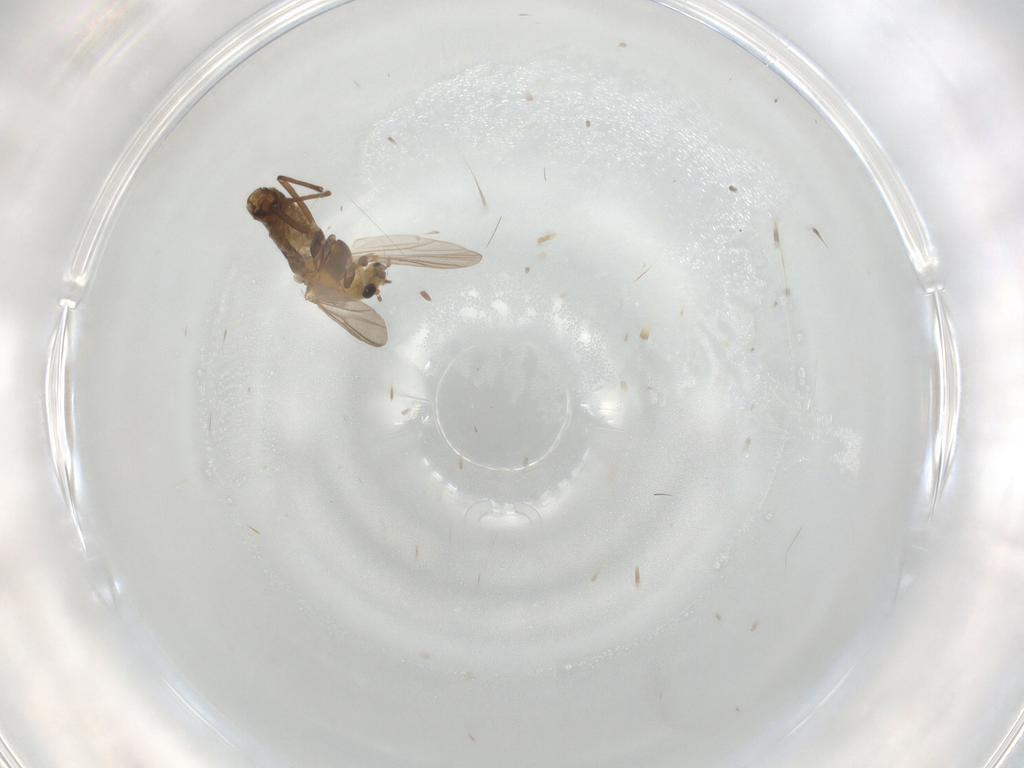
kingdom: Animalia
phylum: Arthropoda
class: Insecta
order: Diptera
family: Chironomidae
